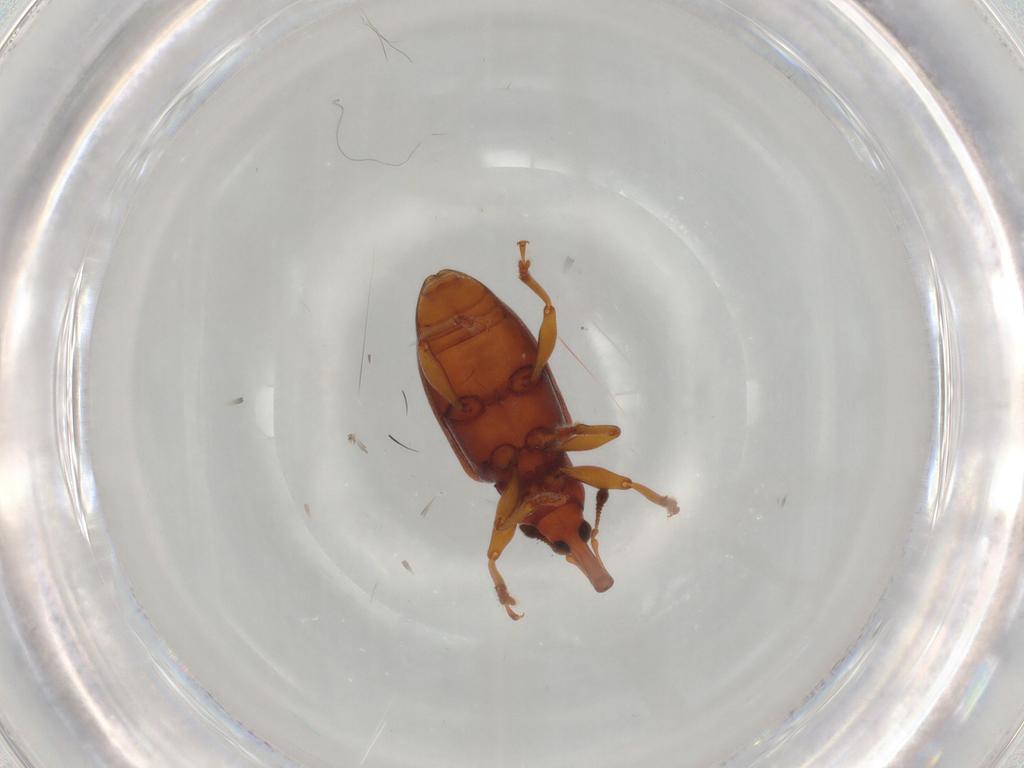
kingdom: Animalia
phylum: Arthropoda
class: Insecta
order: Coleoptera
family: Curculionidae
